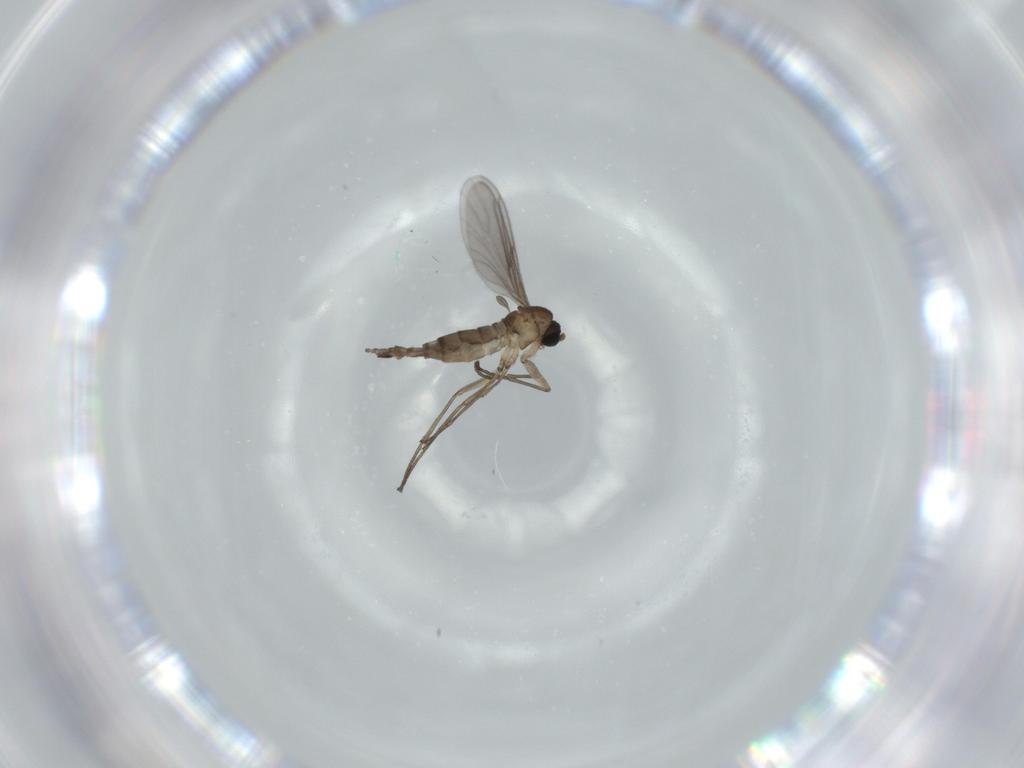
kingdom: Animalia
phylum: Arthropoda
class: Insecta
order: Diptera
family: Sciaridae
